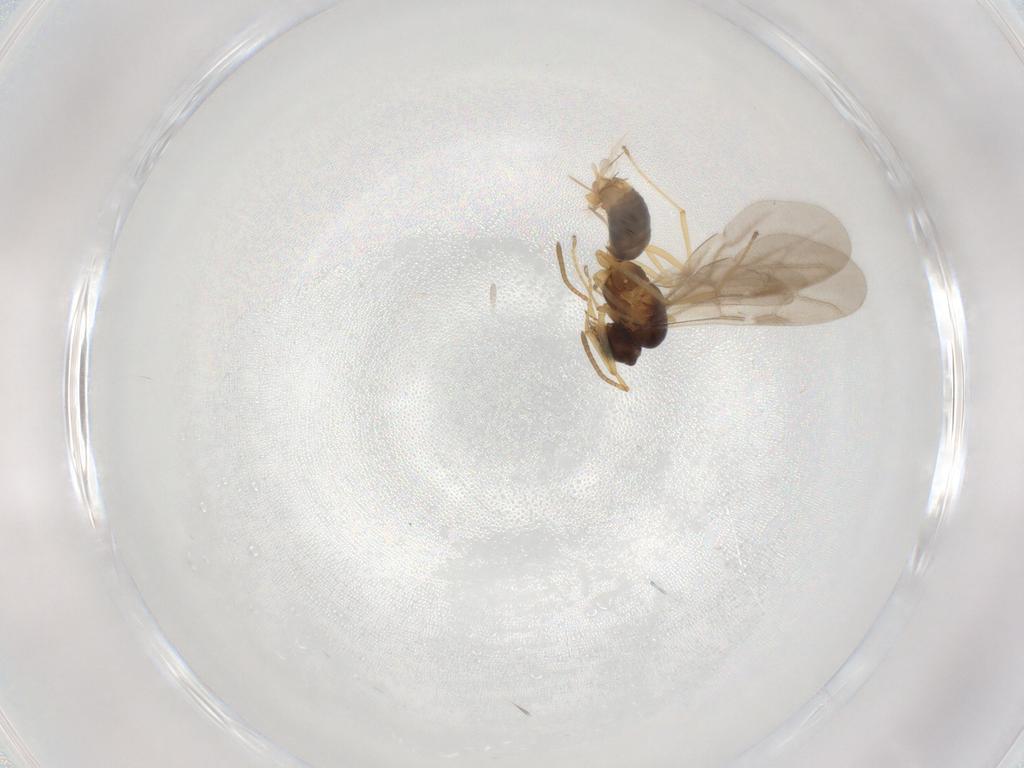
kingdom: Animalia
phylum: Arthropoda
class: Insecta
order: Hymenoptera
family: Formicidae
